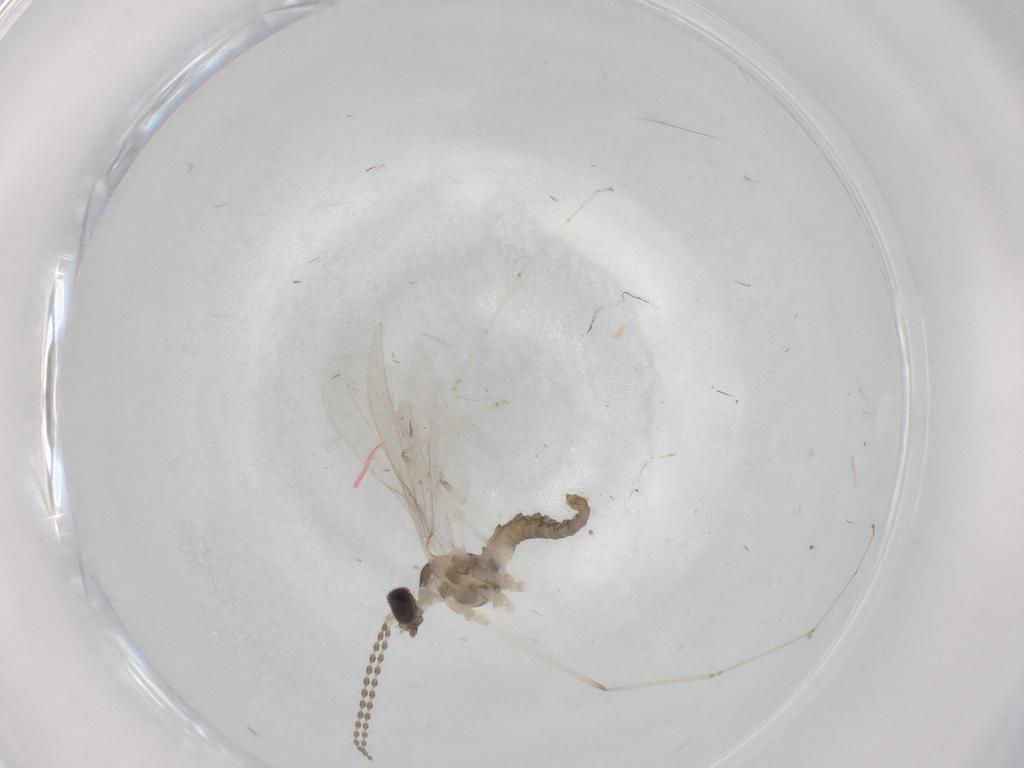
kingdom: Animalia
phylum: Arthropoda
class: Insecta
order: Diptera
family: Cecidomyiidae
